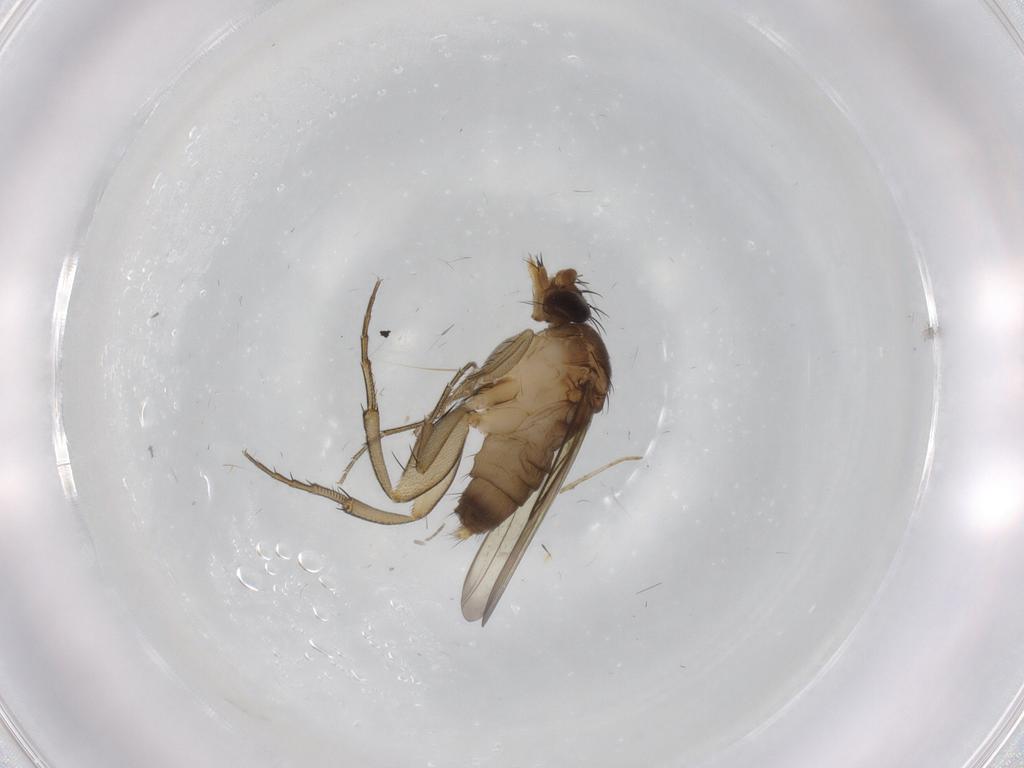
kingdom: Animalia
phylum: Arthropoda
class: Insecta
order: Diptera
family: Phoridae
